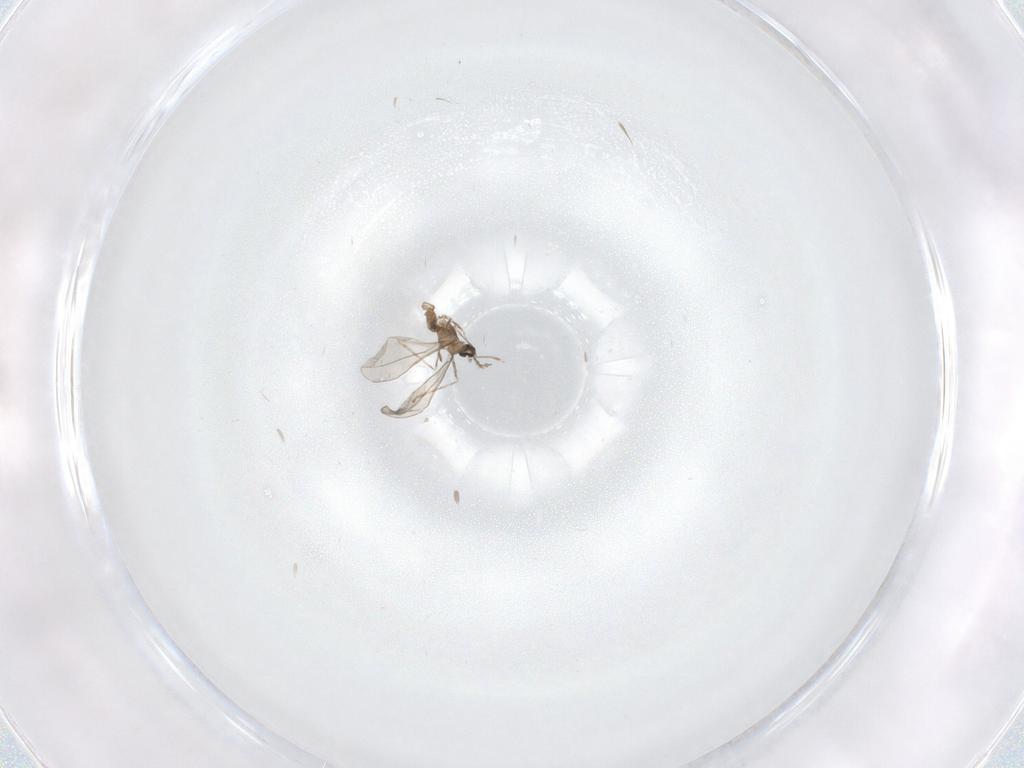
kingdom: Animalia
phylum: Arthropoda
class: Insecta
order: Diptera
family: Cecidomyiidae
